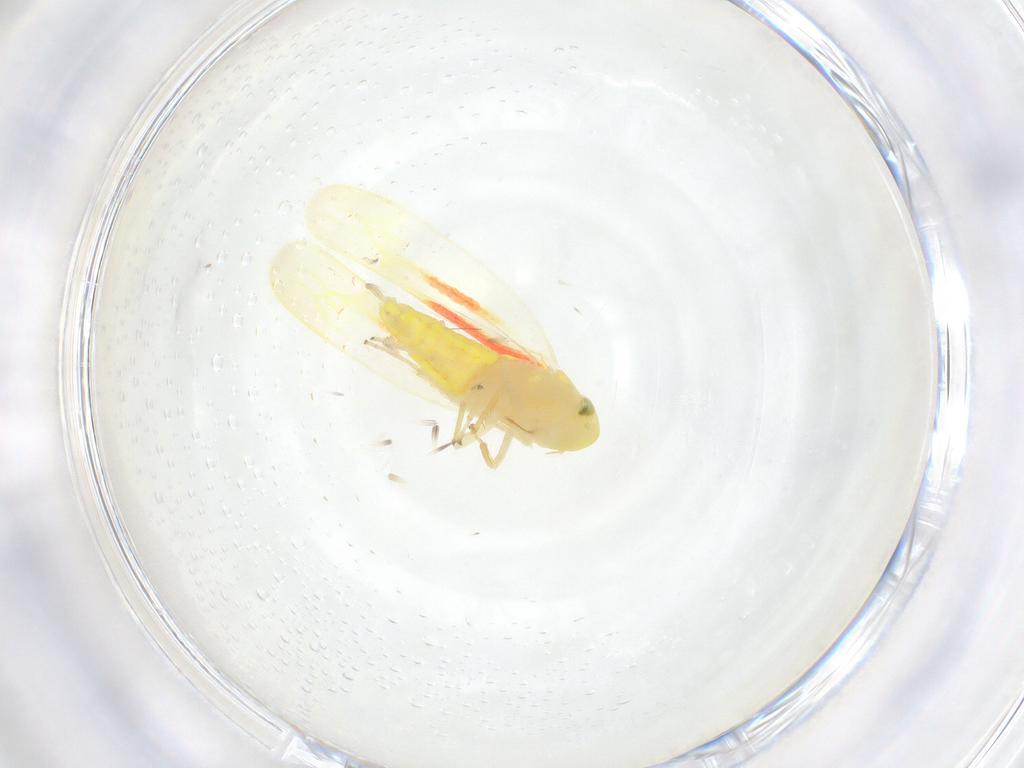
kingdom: Animalia
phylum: Arthropoda
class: Insecta
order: Hemiptera
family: Cicadellidae
